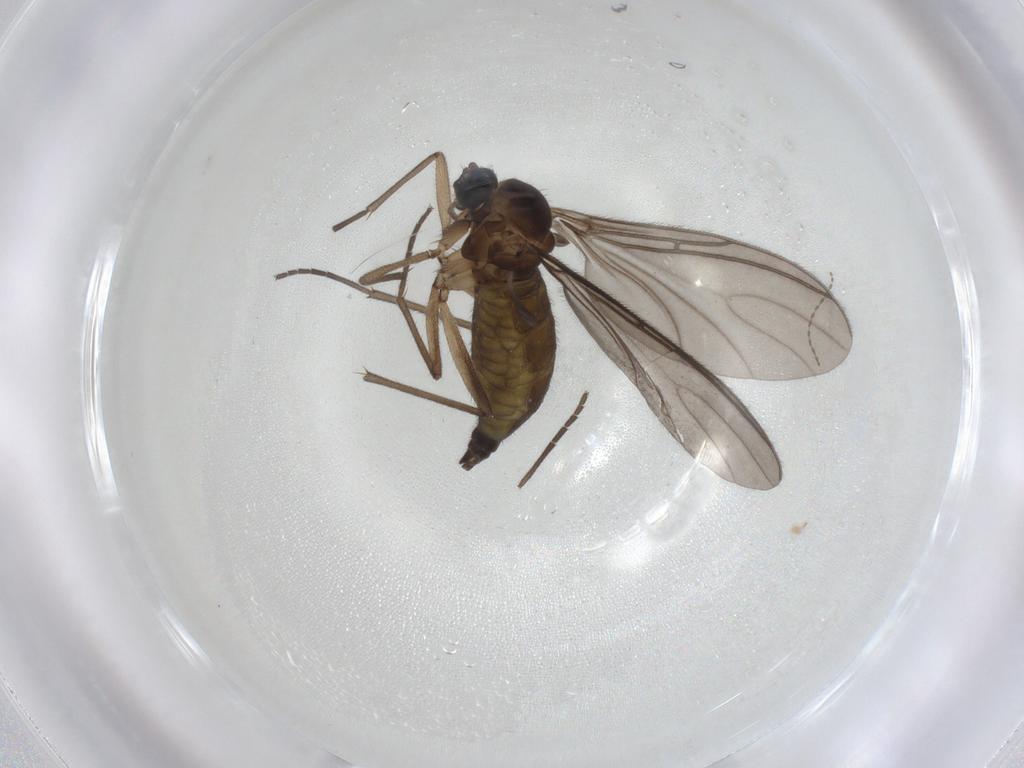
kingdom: Animalia
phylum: Arthropoda
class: Insecta
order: Diptera
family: Sciaridae
